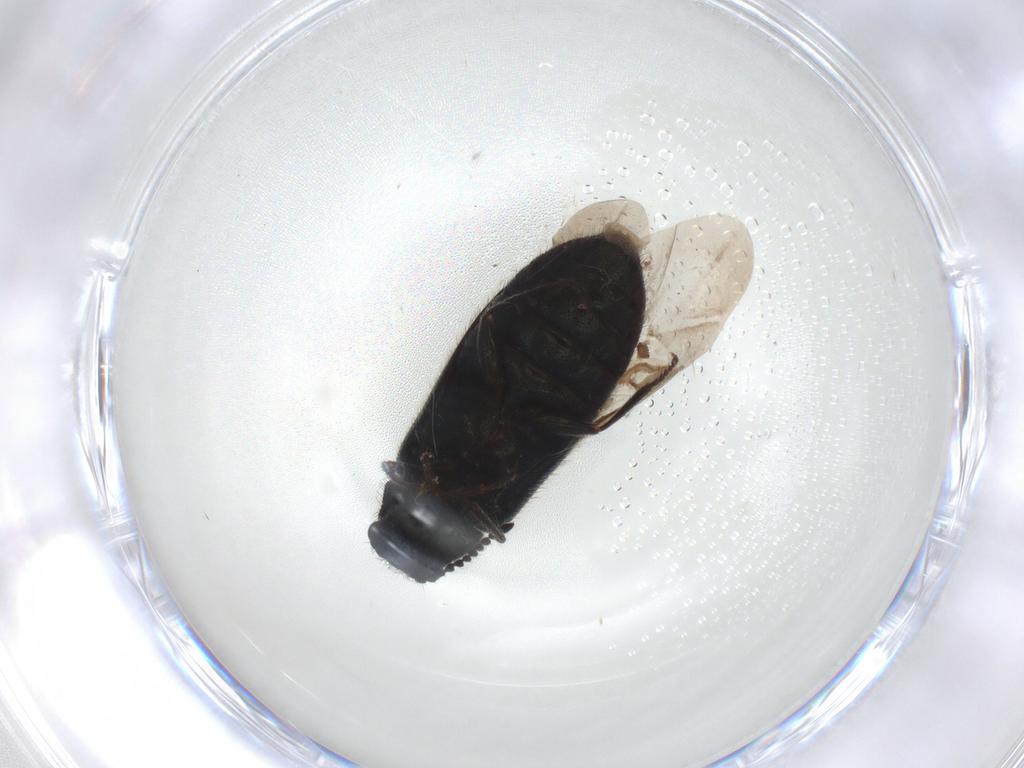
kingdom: Animalia
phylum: Arthropoda
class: Insecta
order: Coleoptera
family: Melyridae
